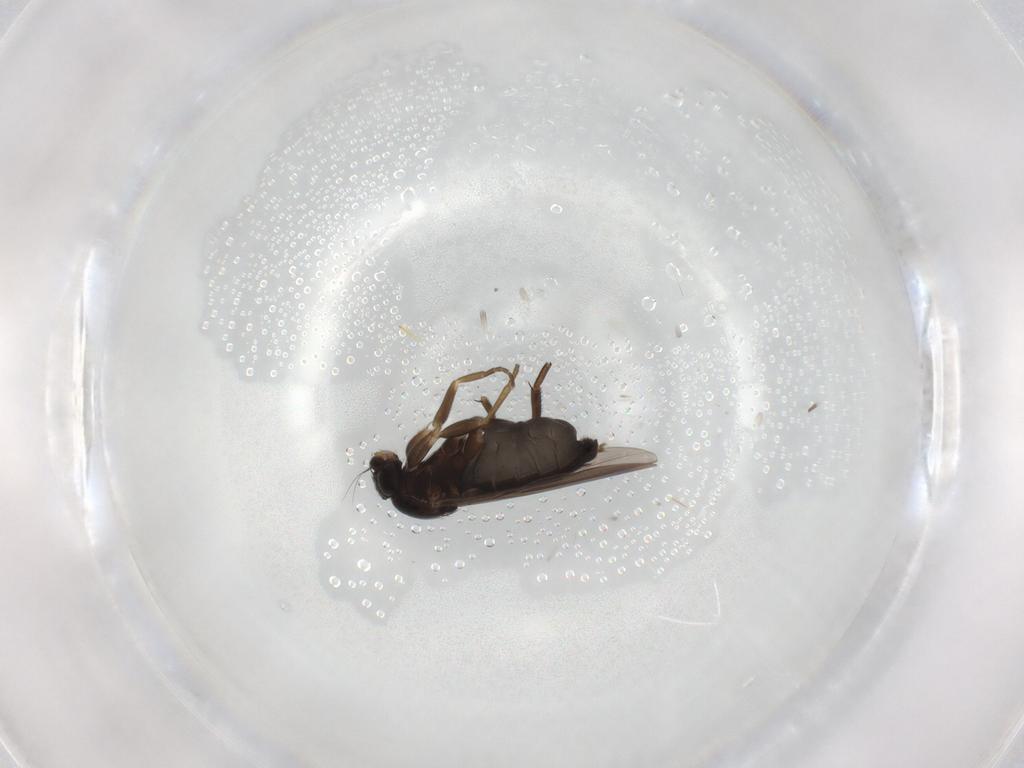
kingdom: Animalia
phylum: Arthropoda
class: Insecta
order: Diptera
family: Phoridae
